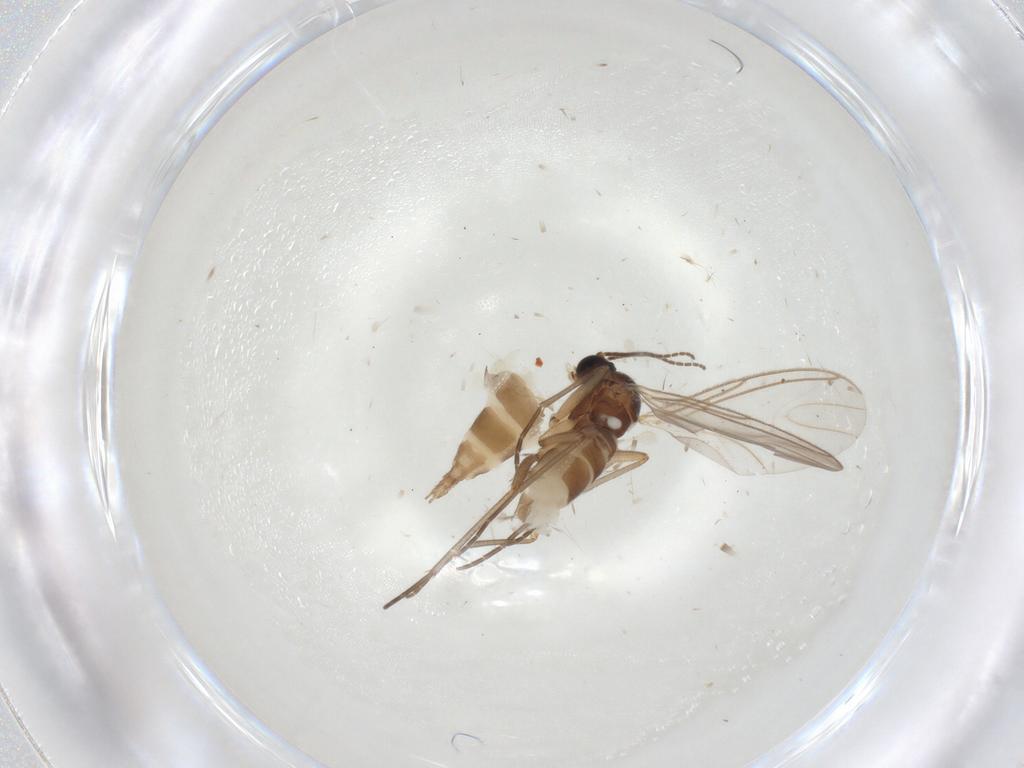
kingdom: Animalia
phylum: Arthropoda
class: Insecta
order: Diptera
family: Sciaridae
